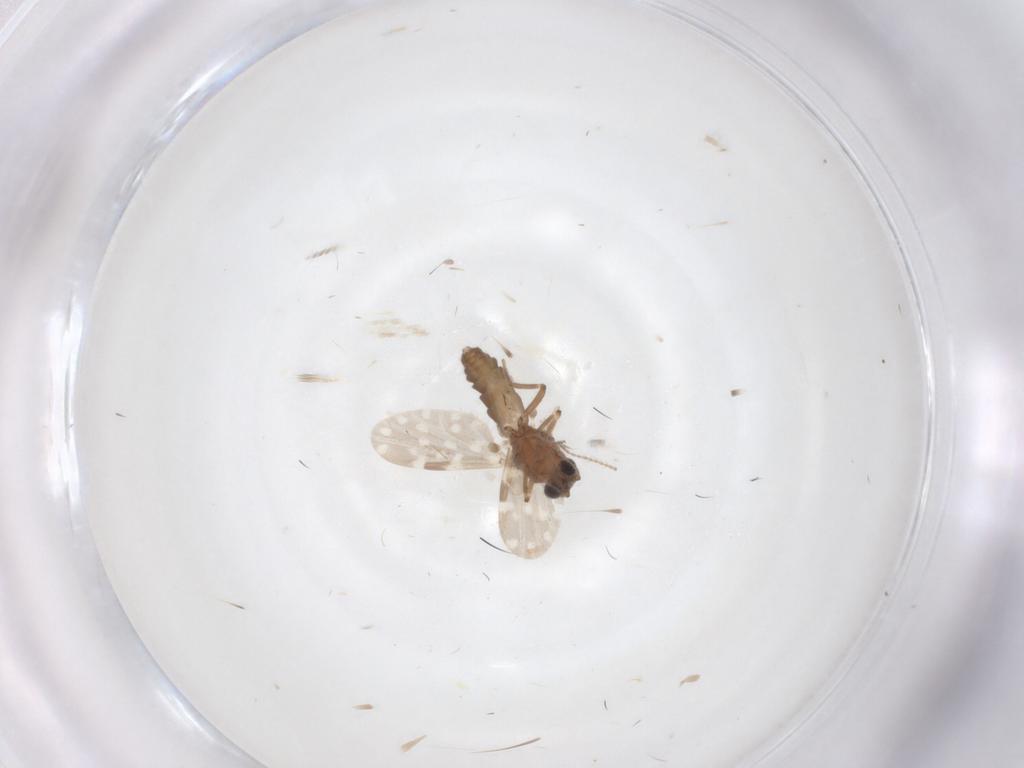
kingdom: Animalia
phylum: Arthropoda
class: Insecta
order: Diptera
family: Ceratopogonidae
